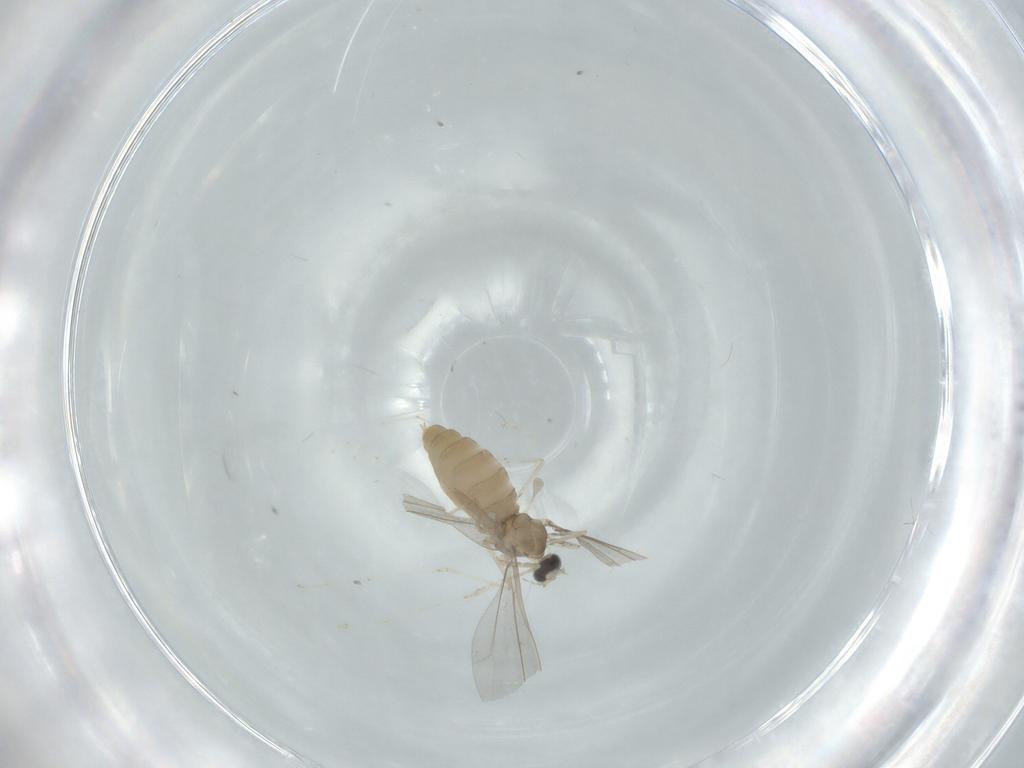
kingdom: Animalia
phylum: Arthropoda
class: Insecta
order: Diptera
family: Cecidomyiidae
